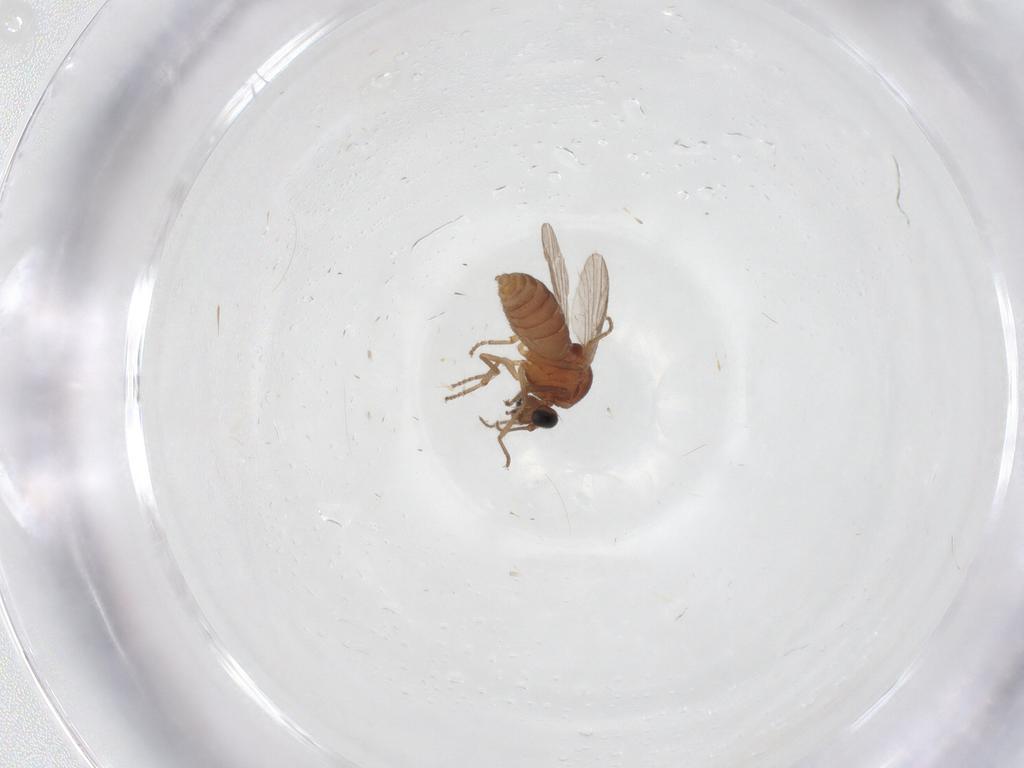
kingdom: Animalia
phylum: Arthropoda
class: Insecta
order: Diptera
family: Ceratopogonidae
